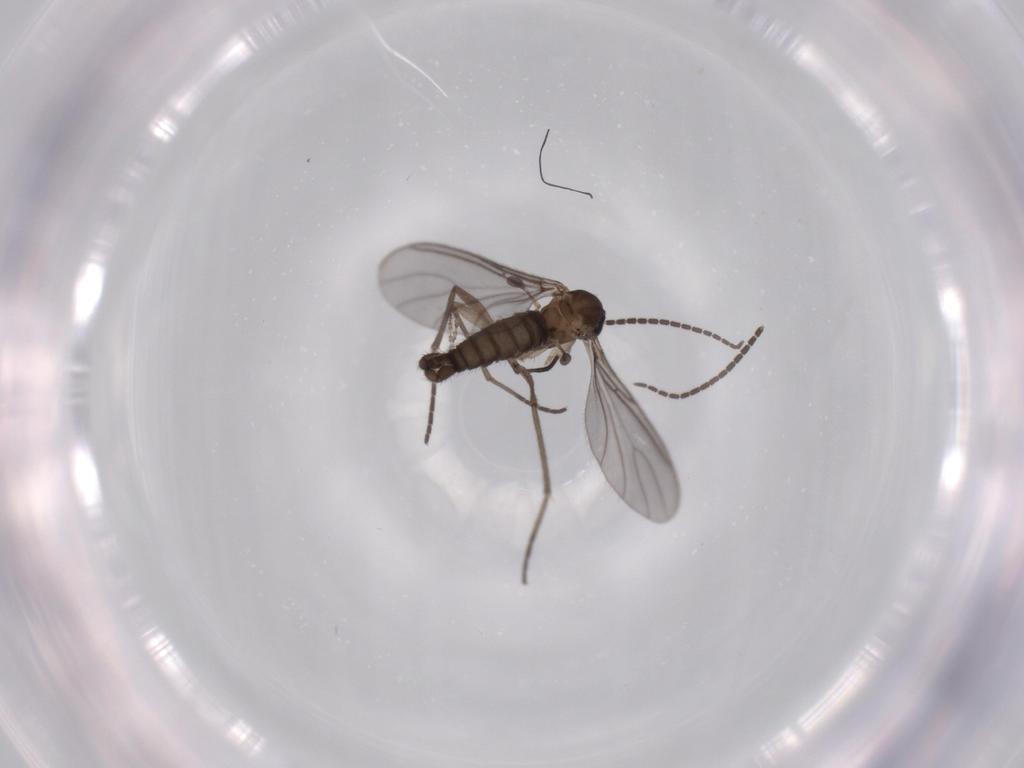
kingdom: Animalia
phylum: Arthropoda
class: Insecta
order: Diptera
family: Sciaridae
